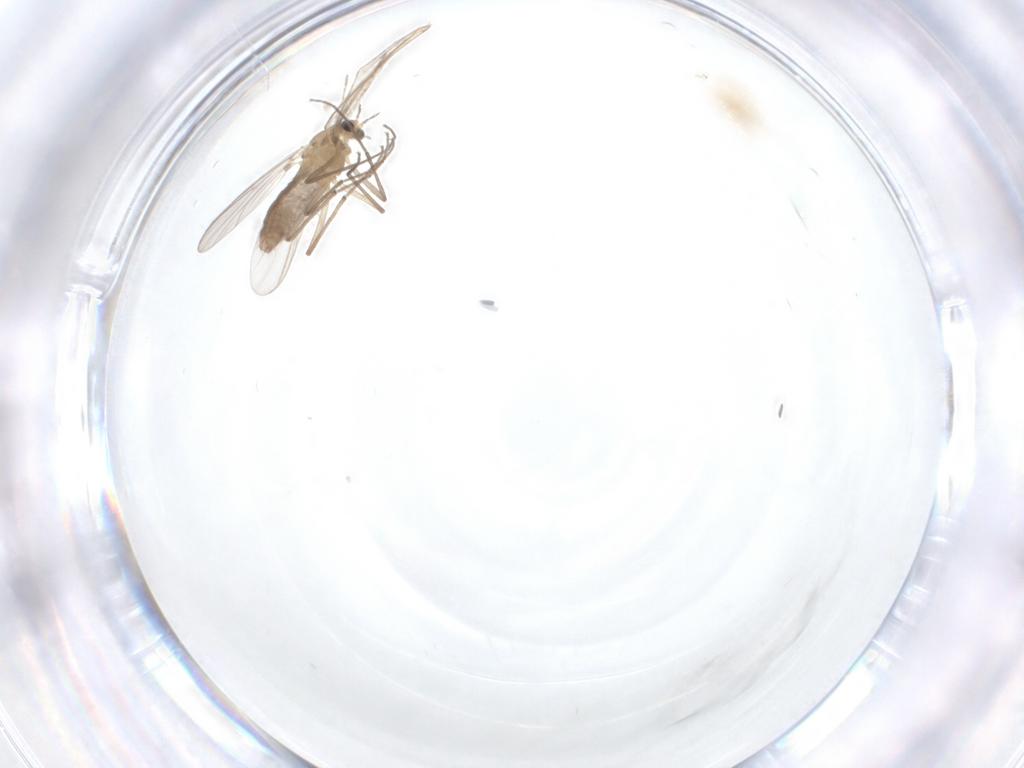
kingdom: Animalia
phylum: Arthropoda
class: Insecta
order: Diptera
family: Chironomidae
